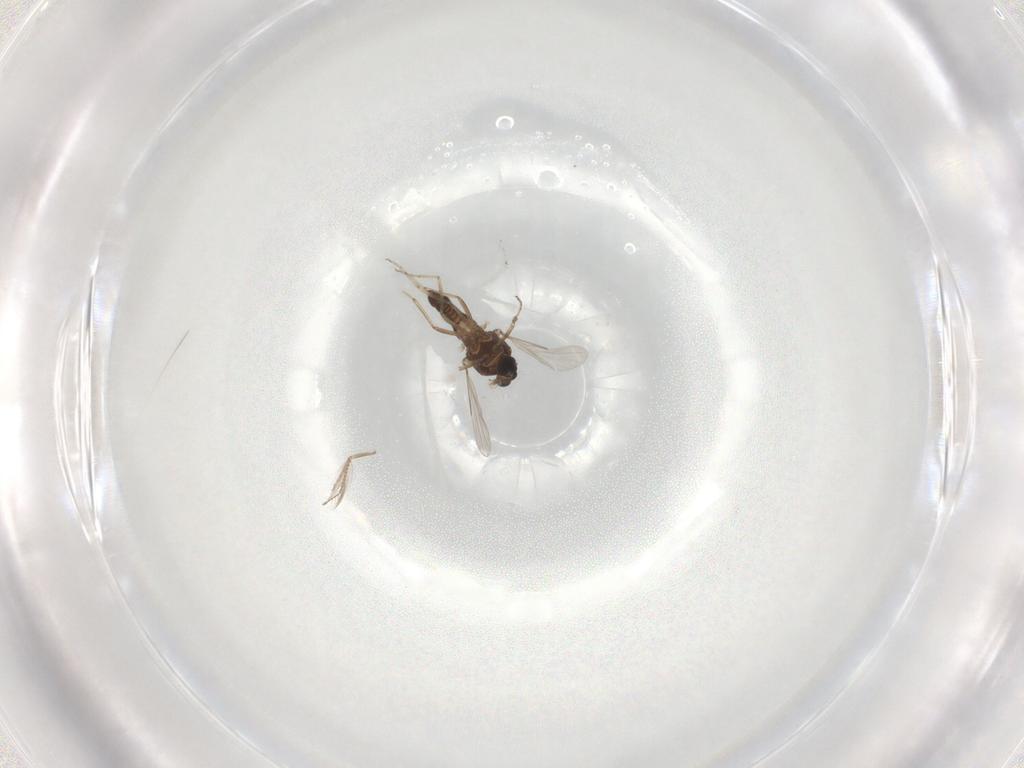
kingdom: Animalia
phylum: Arthropoda
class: Insecta
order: Diptera
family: Ceratopogonidae
